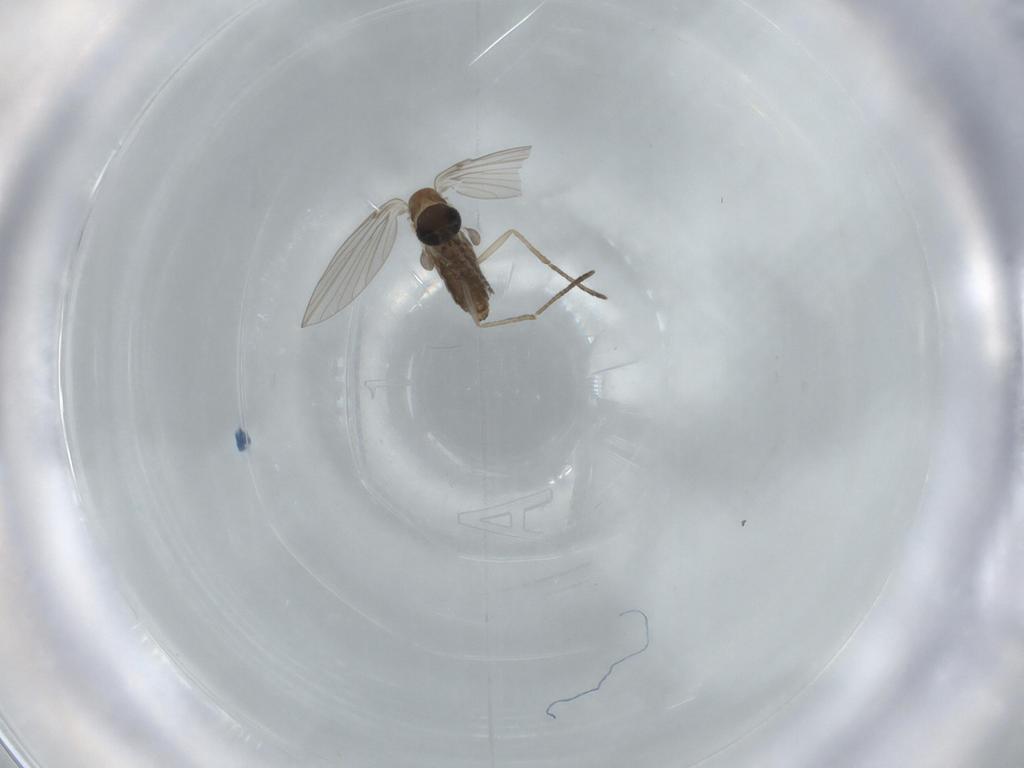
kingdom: Animalia
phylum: Arthropoda
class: Insecta
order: Diptera
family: Cecidomyiidae
